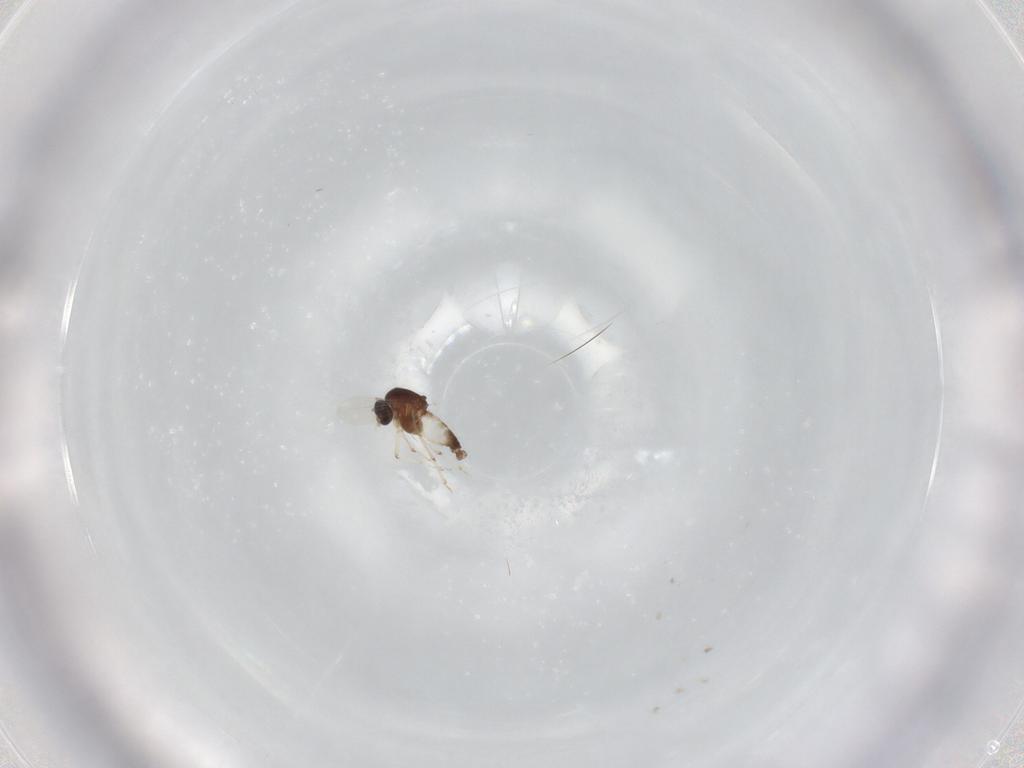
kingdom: Animalia
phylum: Arthropoda
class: Insecta
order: Diptera
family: Ceratopogonidae
